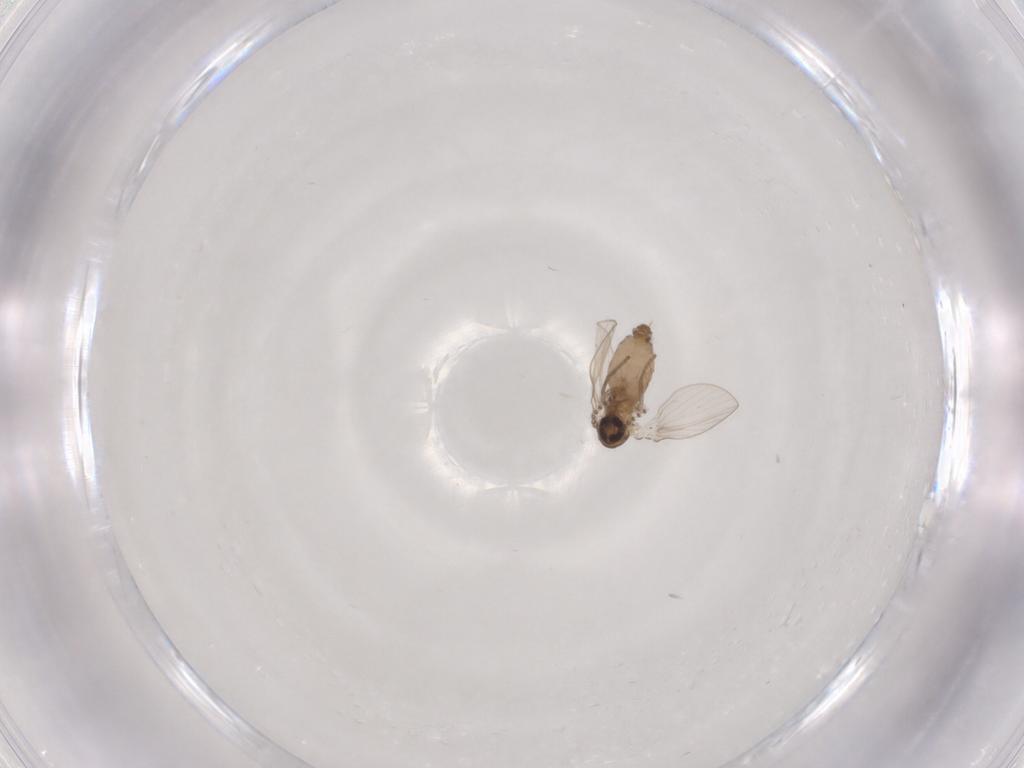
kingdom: Animalia
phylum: Arthropoda
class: Insecta
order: Diptera
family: Psychodidae
